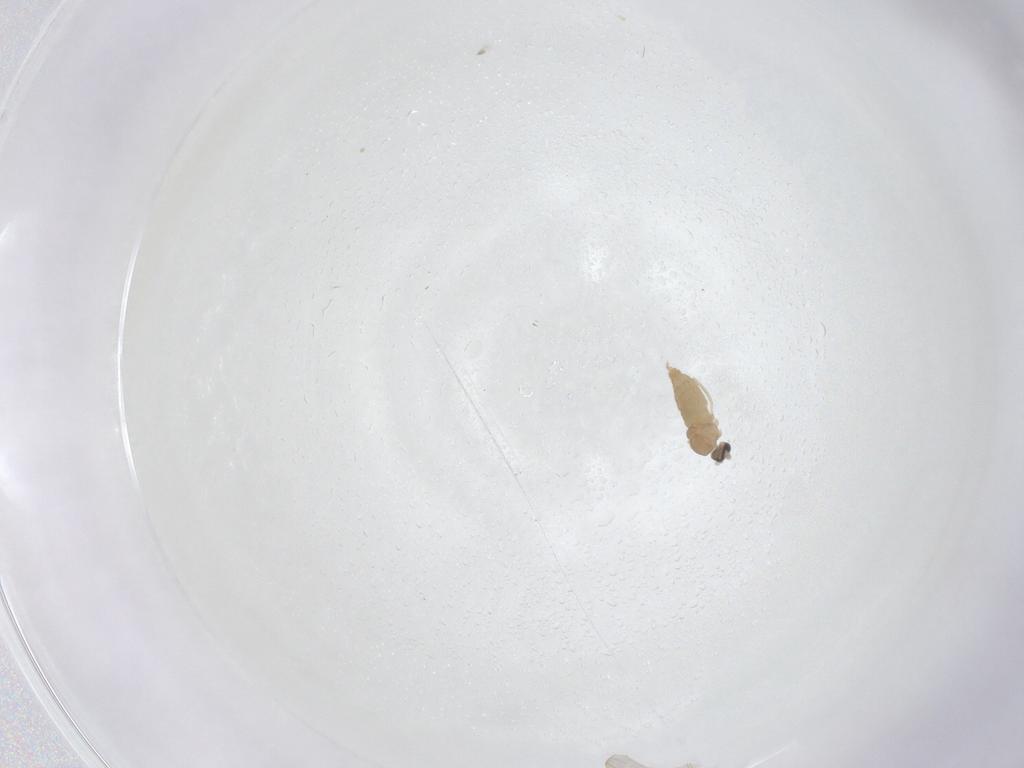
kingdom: Animalia
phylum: Arthropoda
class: Insecta
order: Diptera
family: Cecidomyiidae
